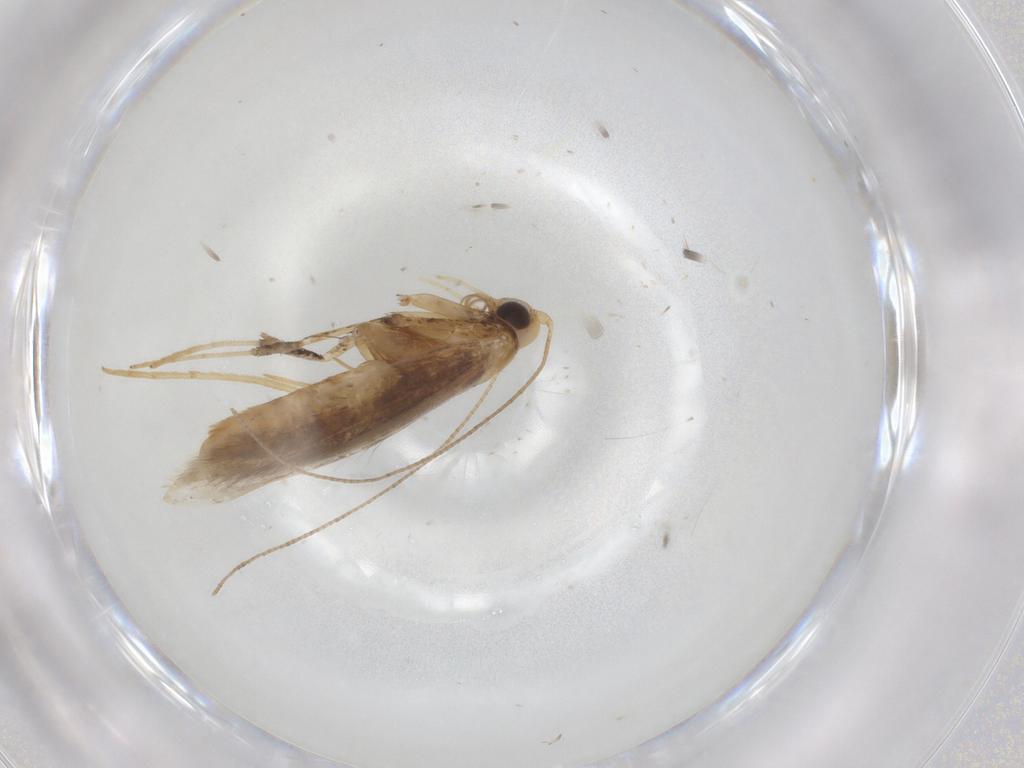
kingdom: Animalia
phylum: Arthropoda
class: Insecta
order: Lepidoptera
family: Gracillariidae
